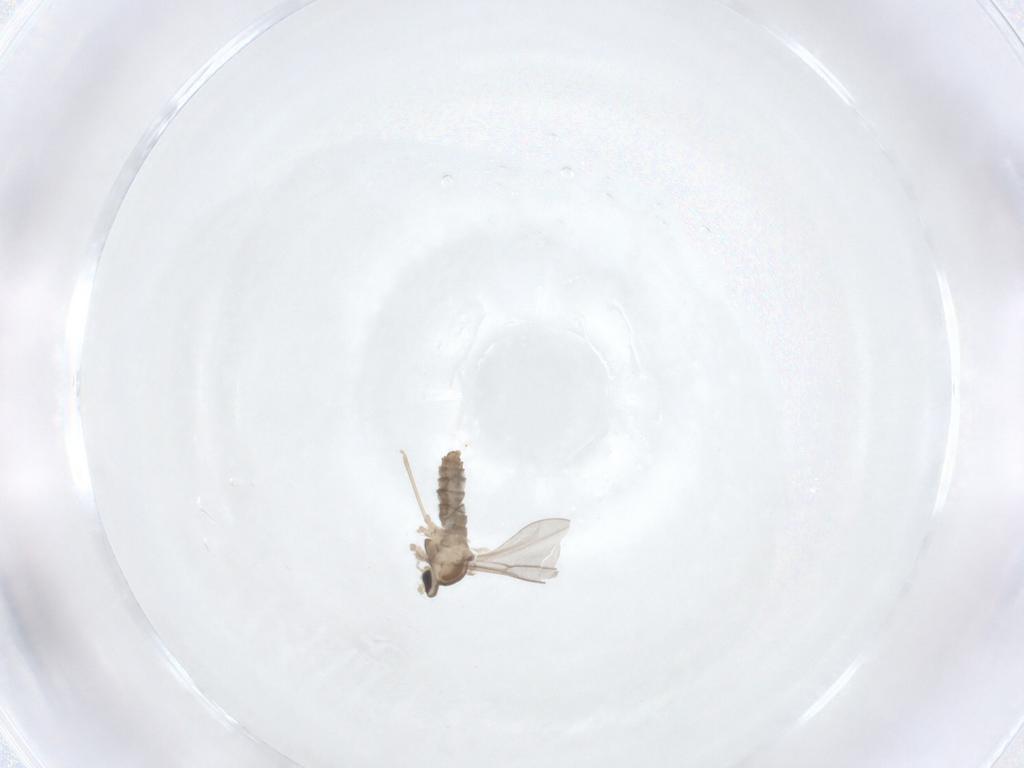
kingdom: Animalia
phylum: Arthropoda
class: Insecta
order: Diptera
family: Cecidomyiidae
